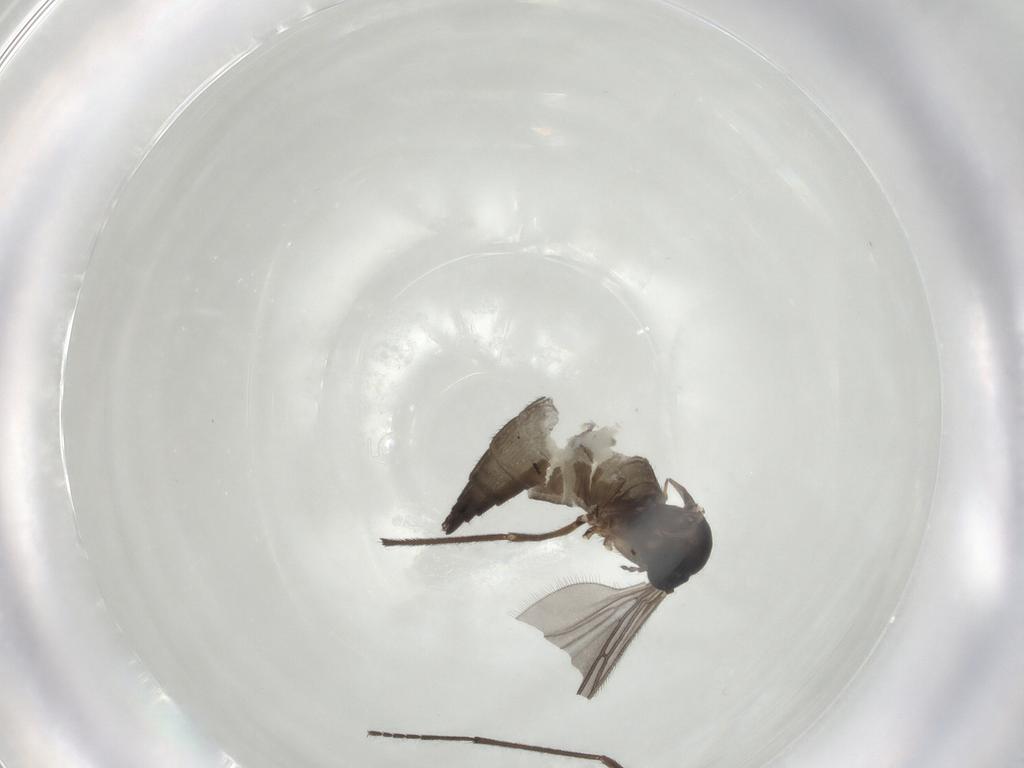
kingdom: Animalia
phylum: Arthropoda
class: Insecta
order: Diptera
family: Sciaridae
